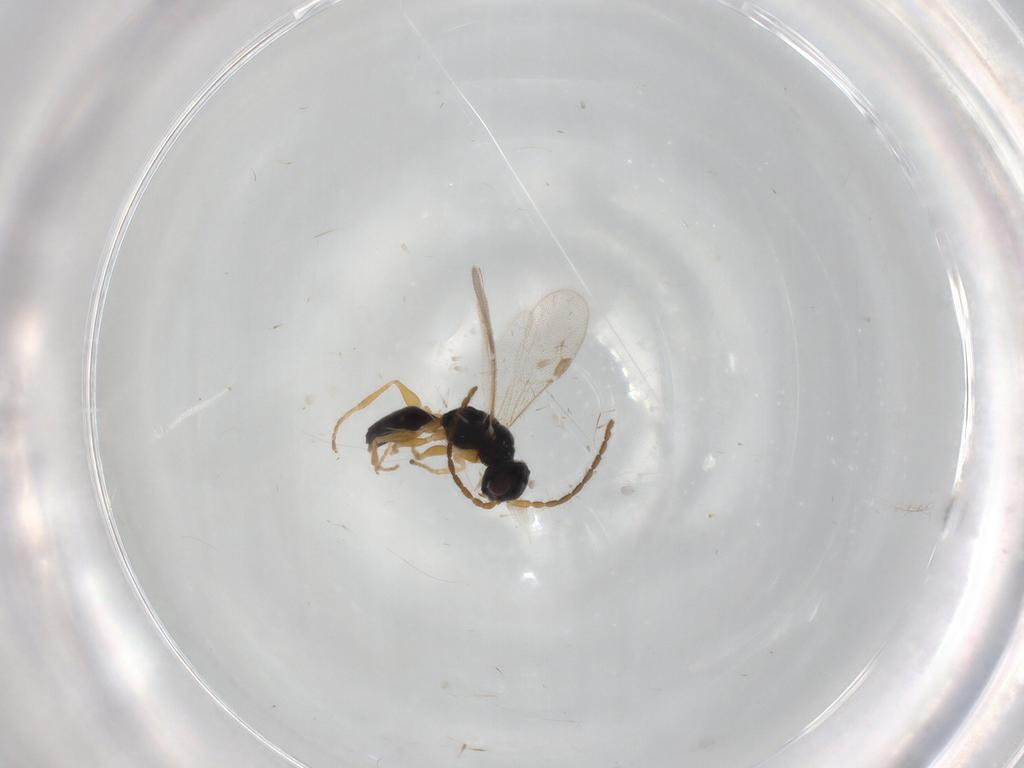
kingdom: Animalia
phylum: Arthropoda
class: Insecta
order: Hymenoptera
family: Dryinidae
